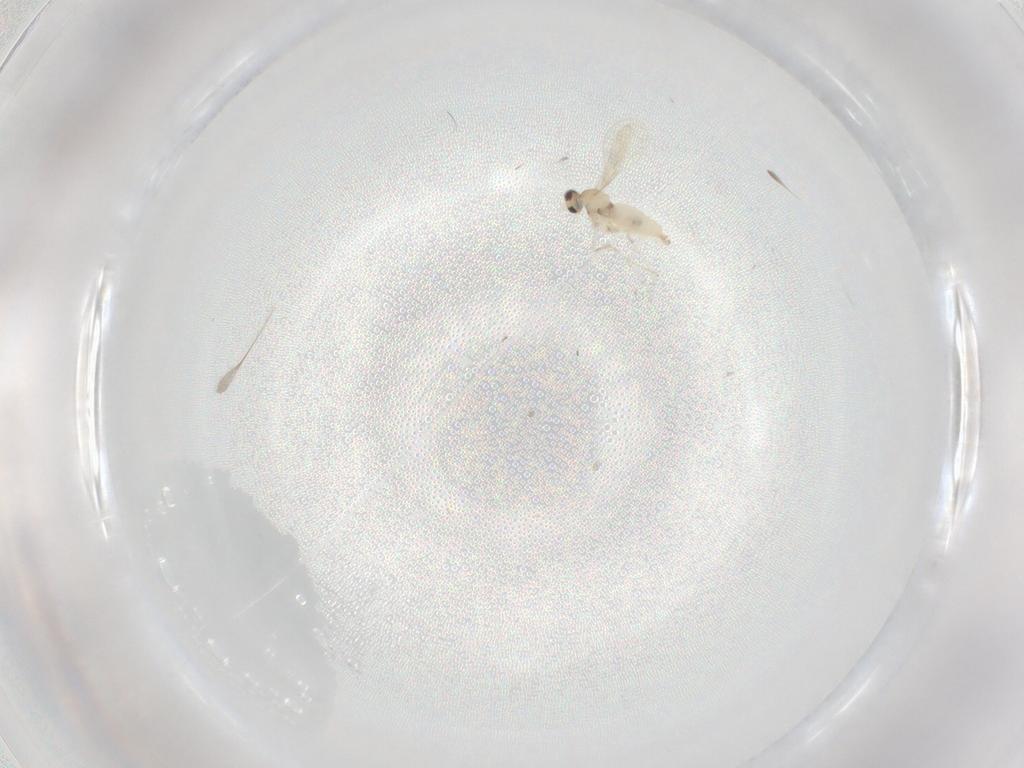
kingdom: Animalia
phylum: Arthropoda
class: Insecta
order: Diptera
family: Cecidomyiidae
